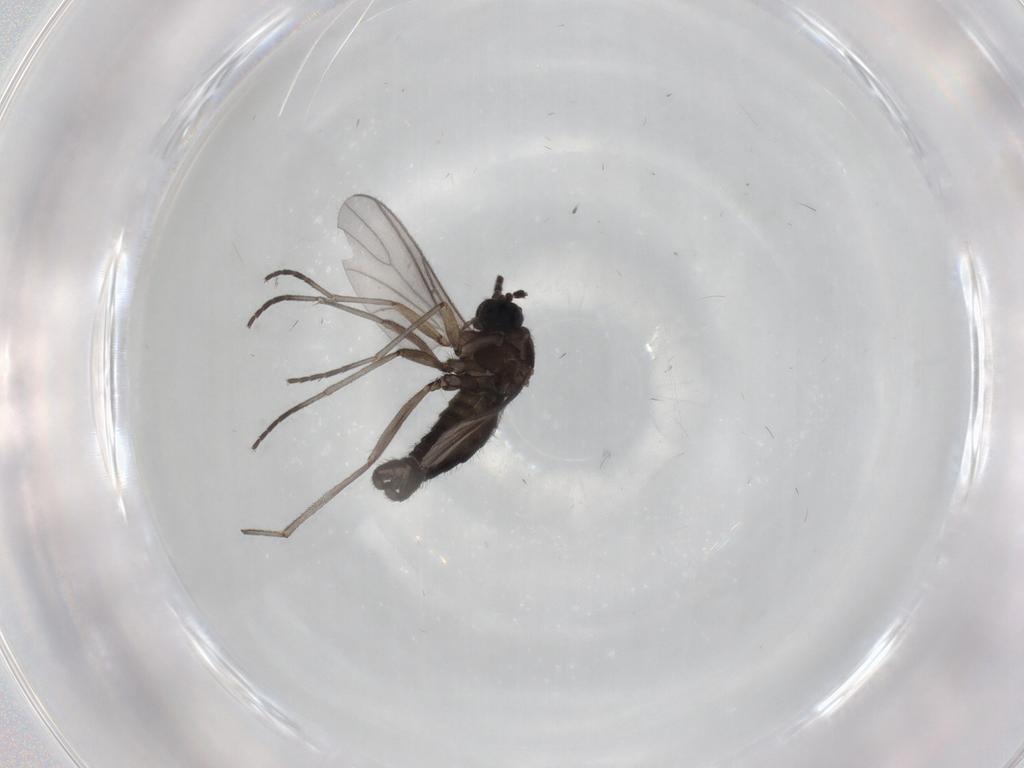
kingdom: Animalia
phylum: Arthropoda
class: Insecta
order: Diptera
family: Sciaridae
